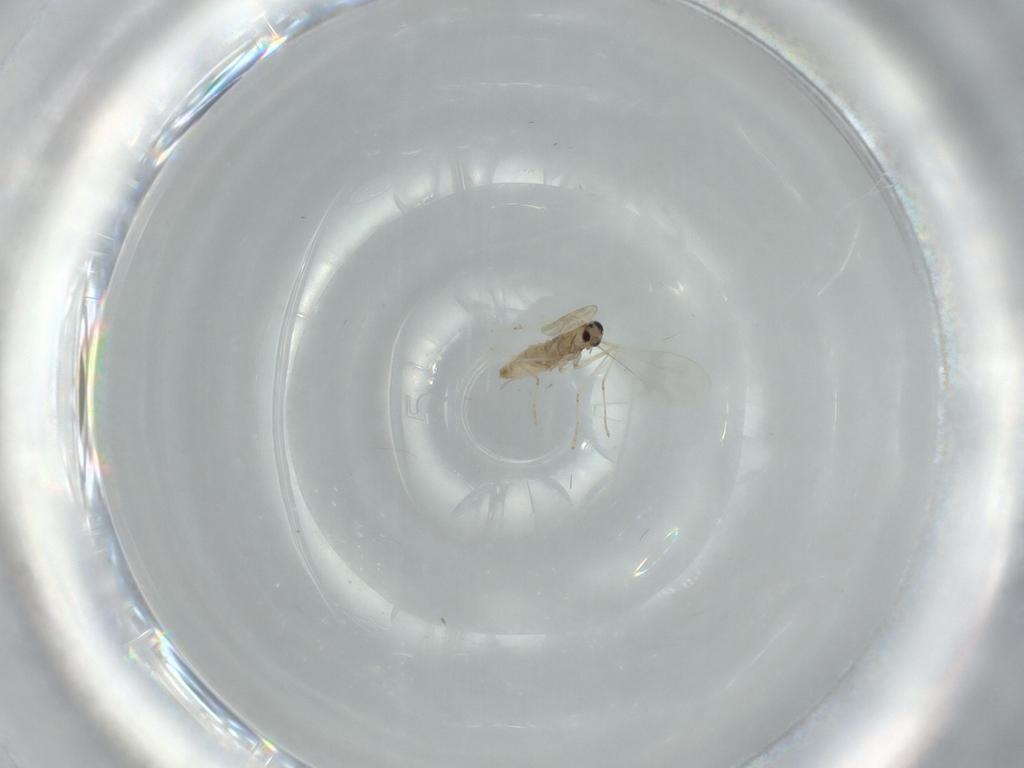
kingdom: Animalia
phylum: Arthropoda
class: Insecta
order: Diptera
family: Cecidomyiidae
